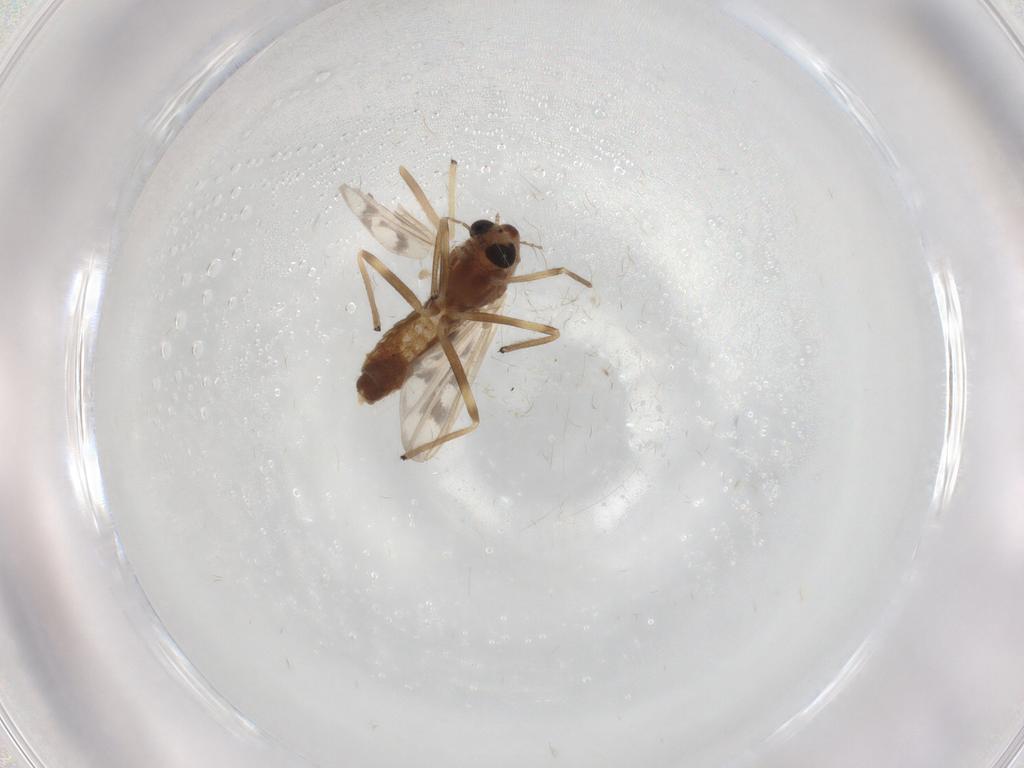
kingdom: Animalia
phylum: Arthropoda
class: Insecta
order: Diptera
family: Chironomidae
